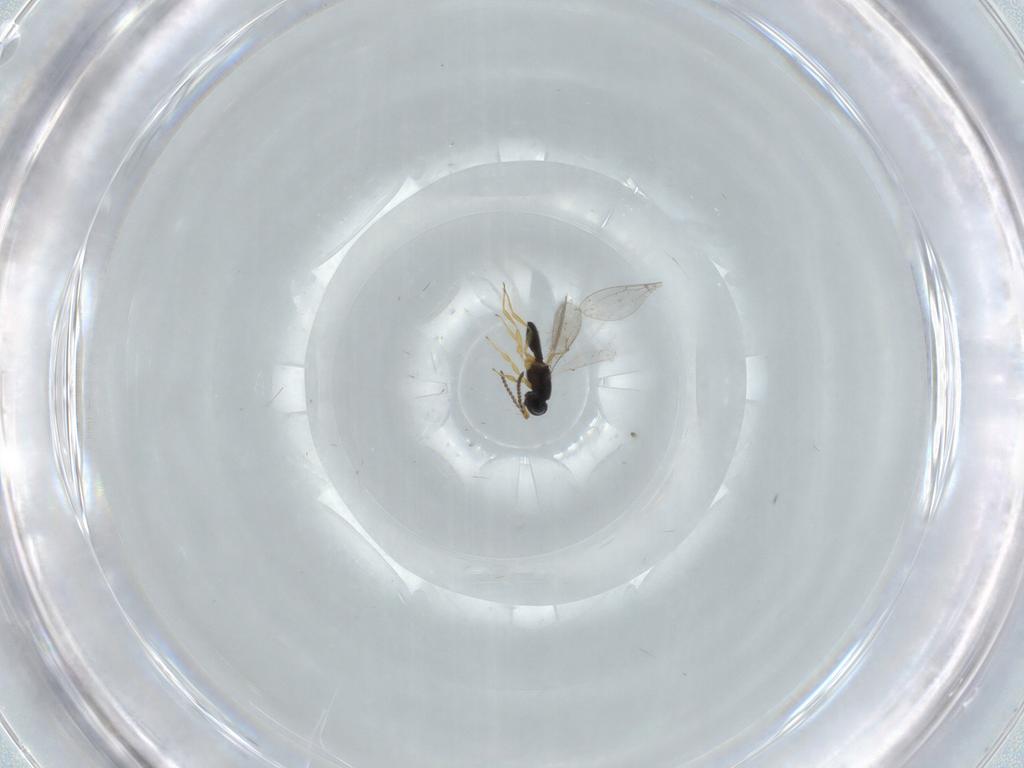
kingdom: Animalia
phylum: Arthropoda
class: Insecta
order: Hymenoptera
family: Scelionidae
